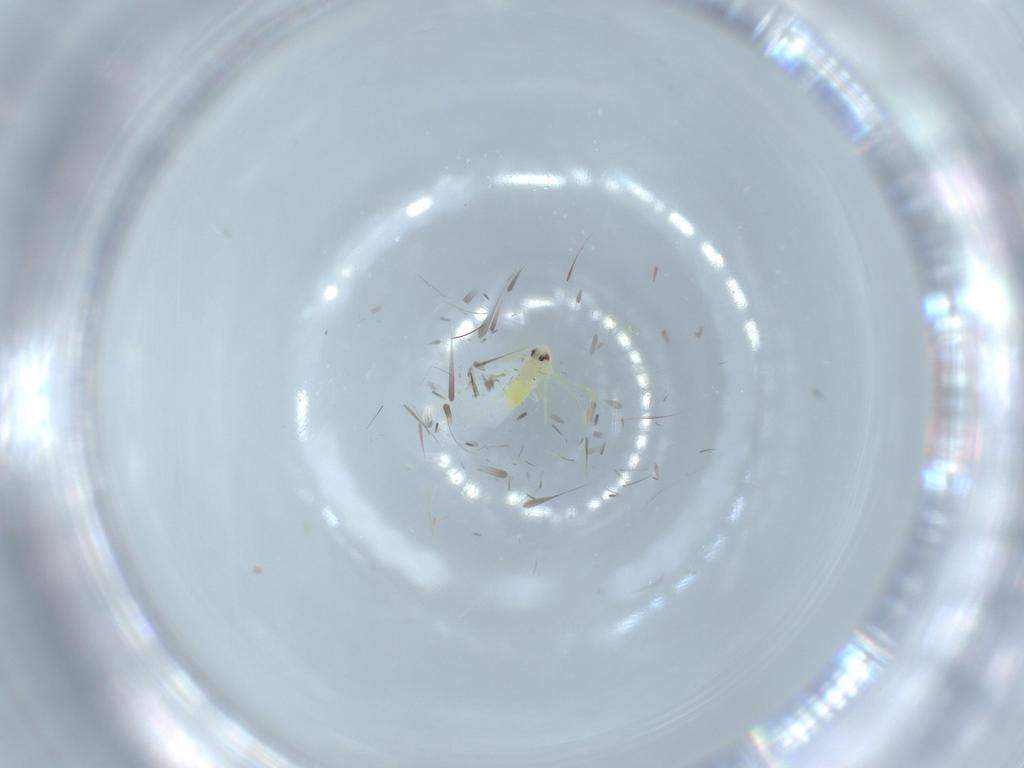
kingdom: Animalia
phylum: Arthropoda
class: Insecta
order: Hemiptera
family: Aleyrodidae
